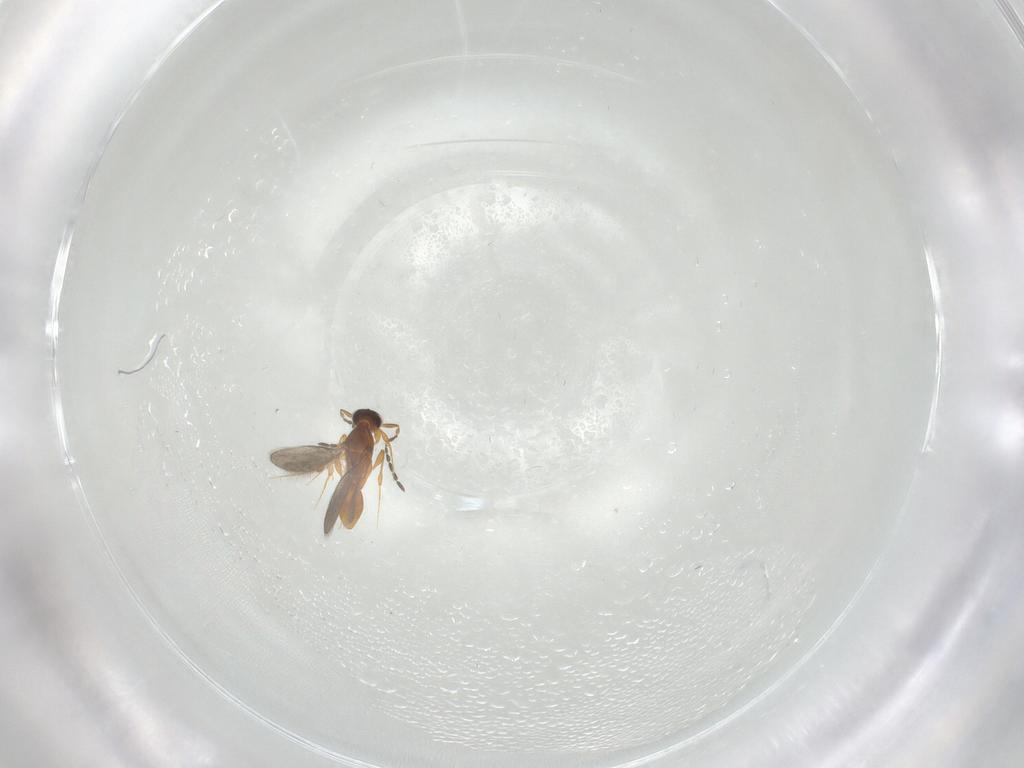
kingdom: Animalia
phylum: Arthropoda
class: Insecta
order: Hymenoptera
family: Platygastridae
